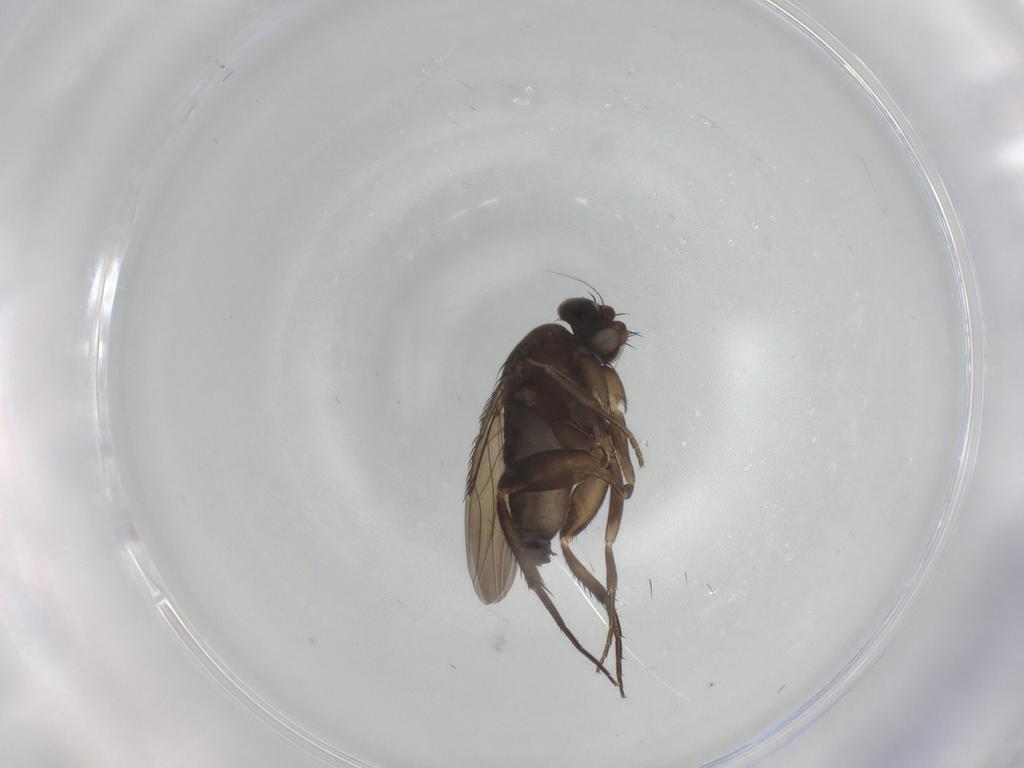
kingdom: Animalia
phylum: Arthropoda
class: Insecta
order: Diptera
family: Phoridae
